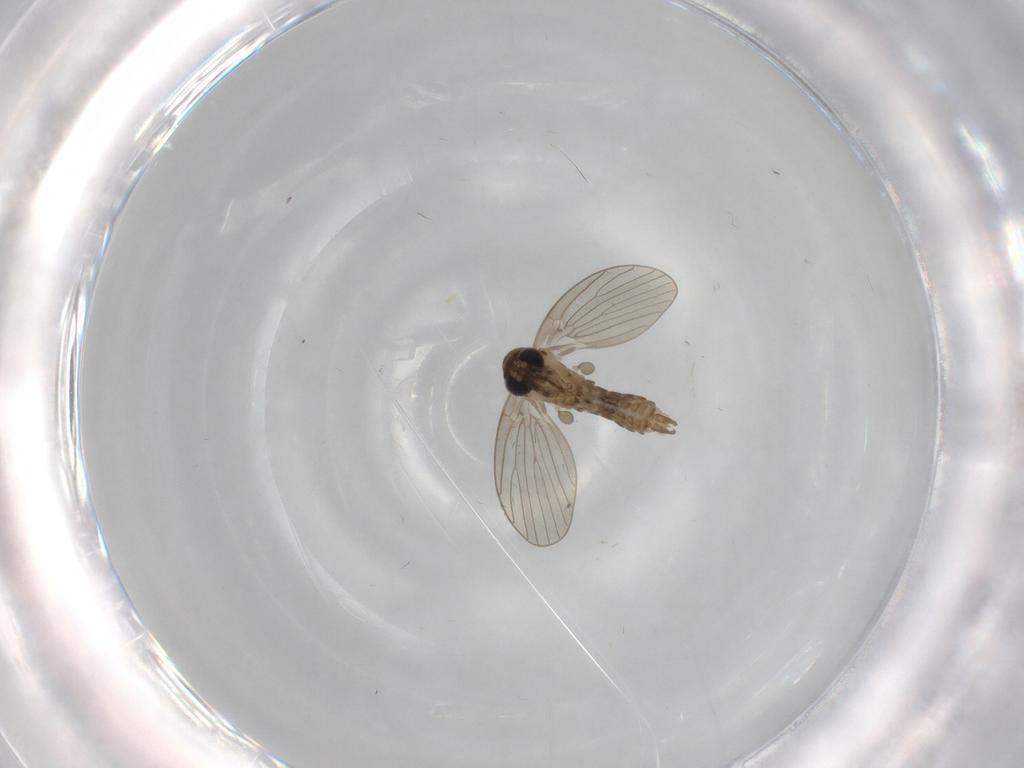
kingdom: Animalia
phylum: Arthropoda
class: Insecta
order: Diptera
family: Psychodidae
